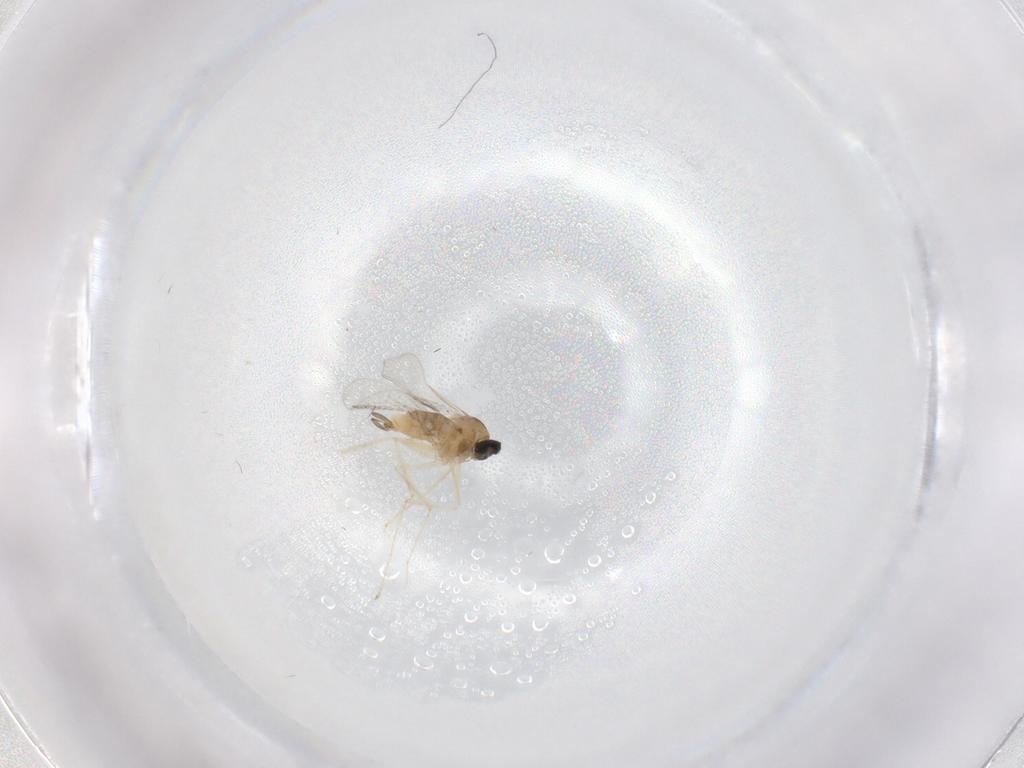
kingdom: Animalia
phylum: Arthropoda
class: Insecta
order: Diptera
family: Cecidomyiidae
